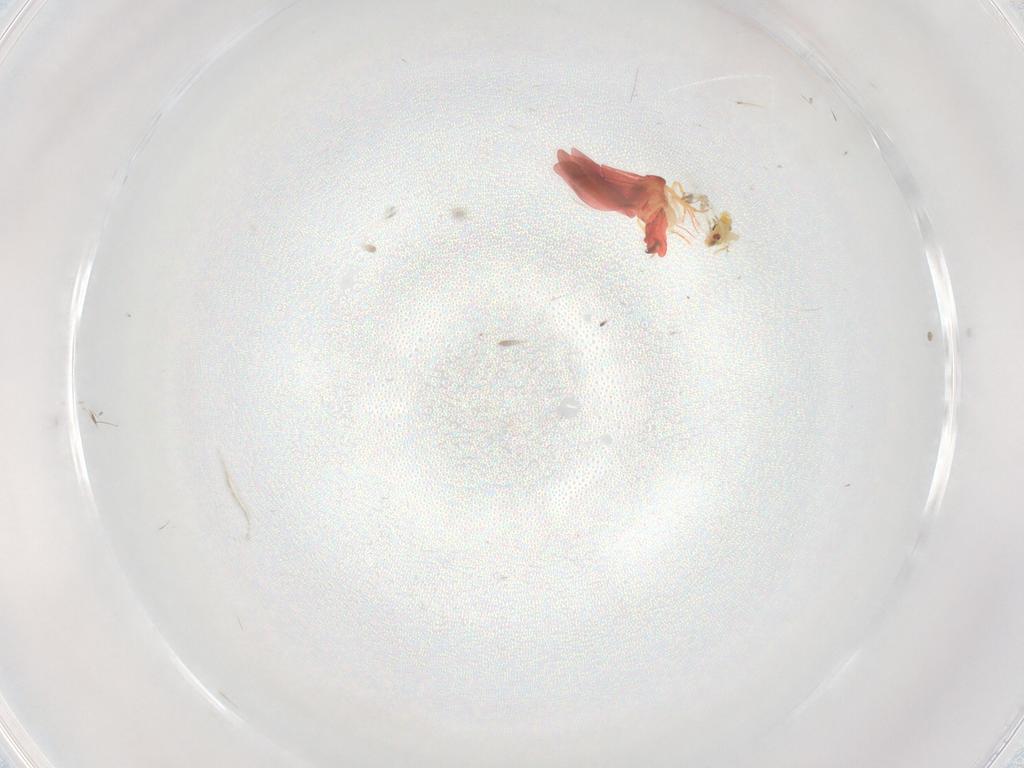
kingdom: Animalia
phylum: Arthropoda
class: Insecta
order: Hemiptera
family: Aleyrodidae
